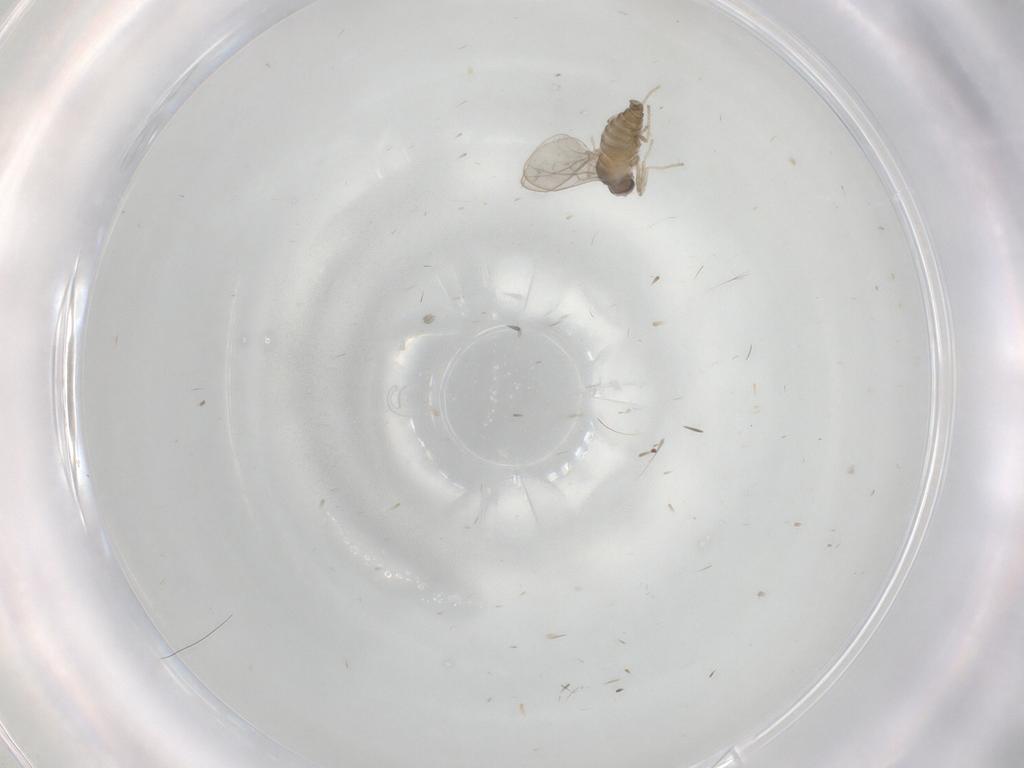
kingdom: Animalia
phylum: Arthropoda
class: Insecta
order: Diptera
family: Cecidomyiidae
